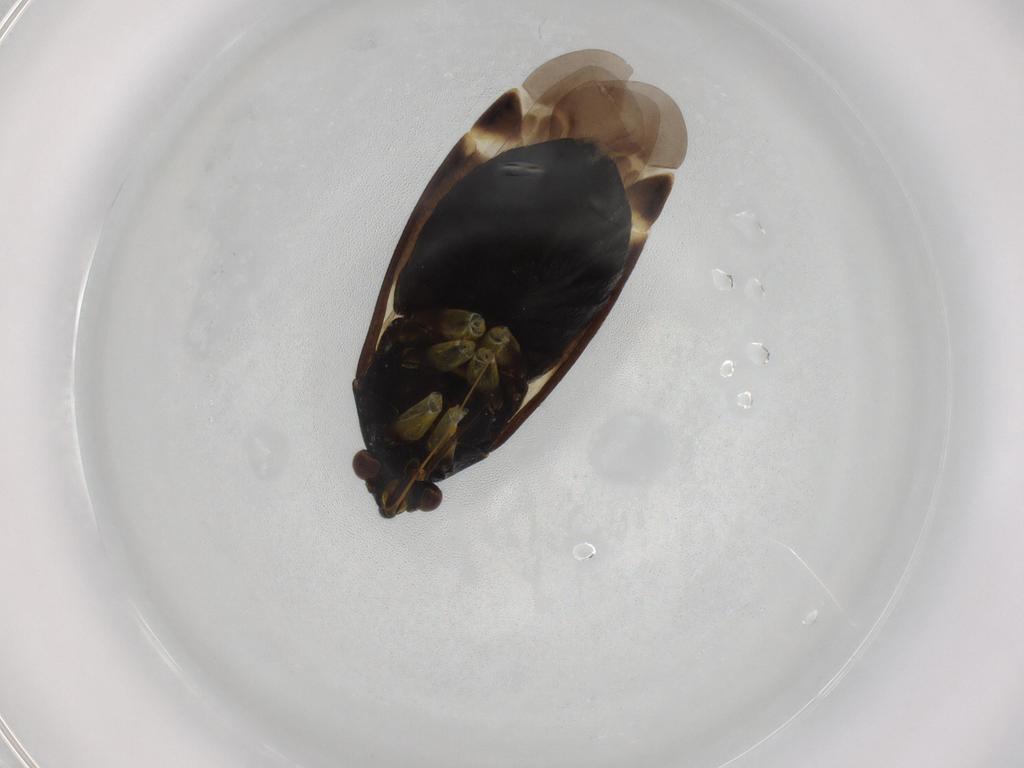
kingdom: Animalia
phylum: Arthropoda
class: Insecta
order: Hemiptera
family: Miridae
